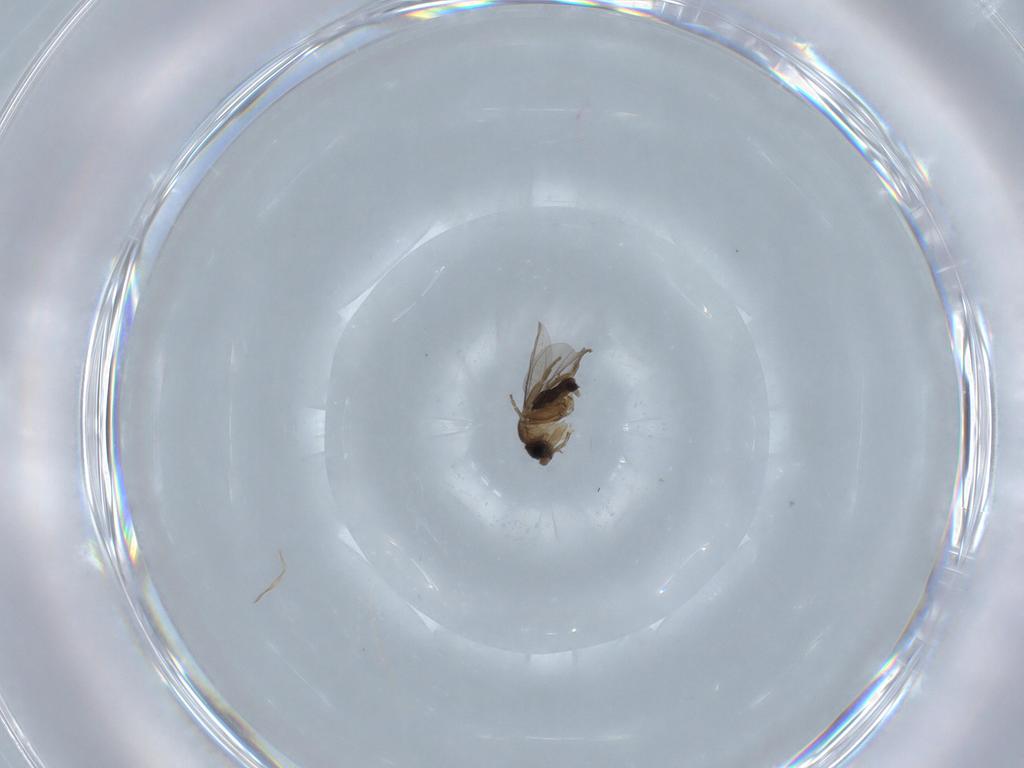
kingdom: Animalia
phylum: Arthropoda
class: Insecta
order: Diptera
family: Phoridae
